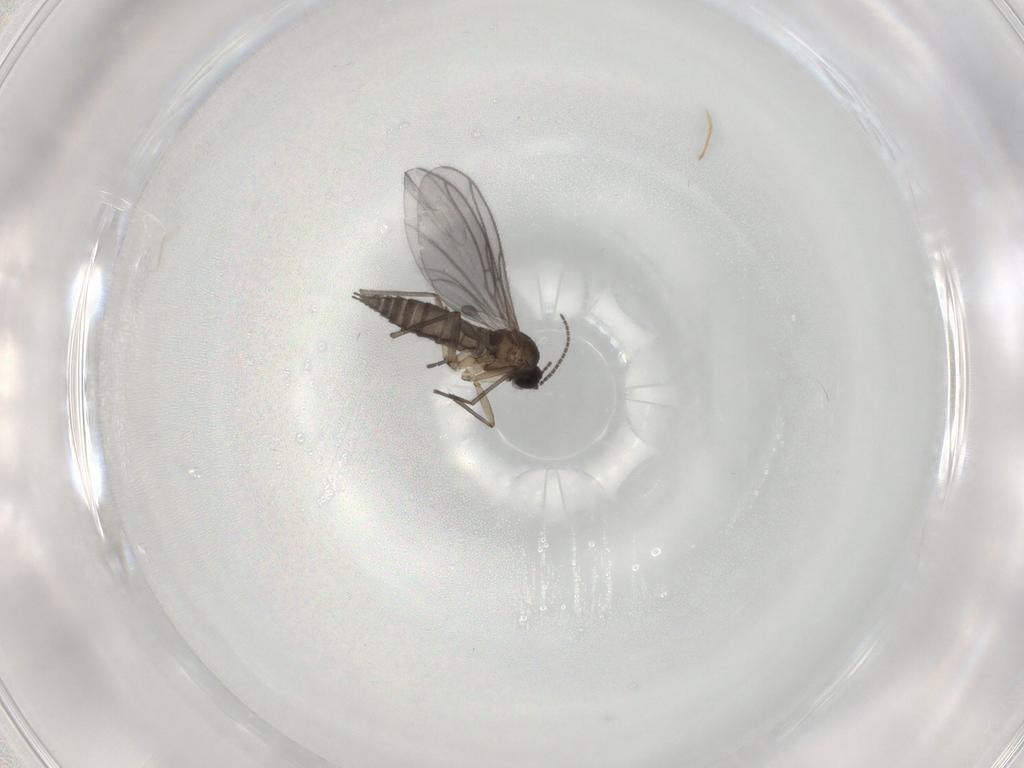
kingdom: Animalia
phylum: Arthropoda
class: Insecta
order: Diptera
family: Sciaridae
